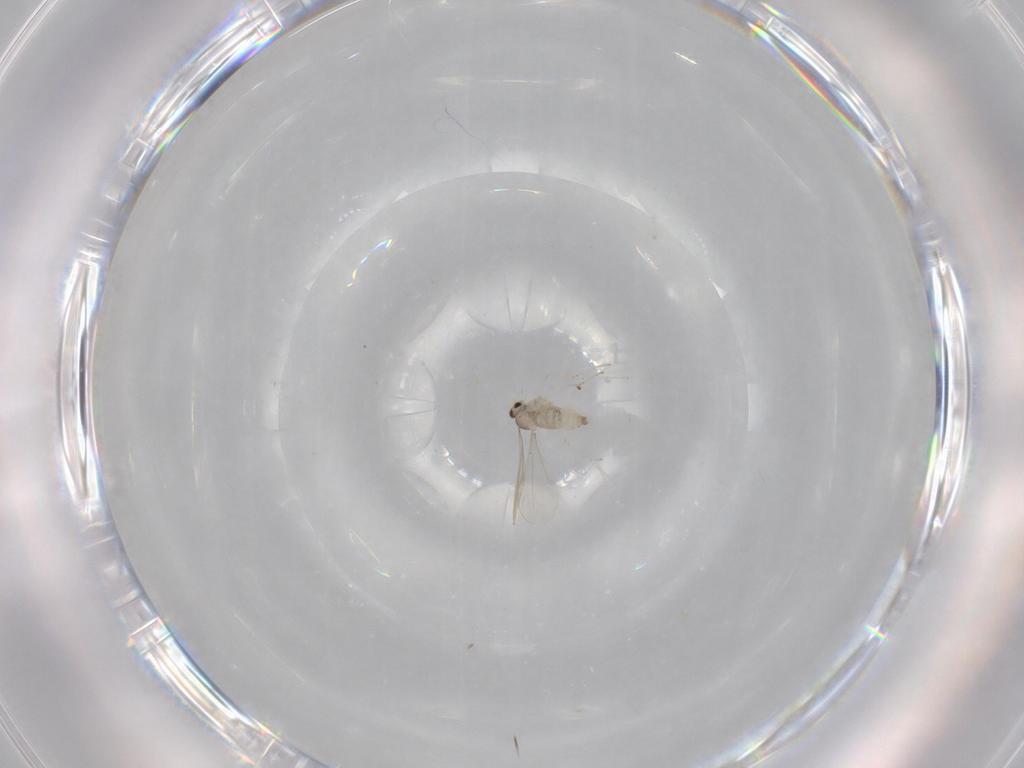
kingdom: Animalia
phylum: Arthropoda
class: Insecta
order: Diptera
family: Cecidomyiidae
